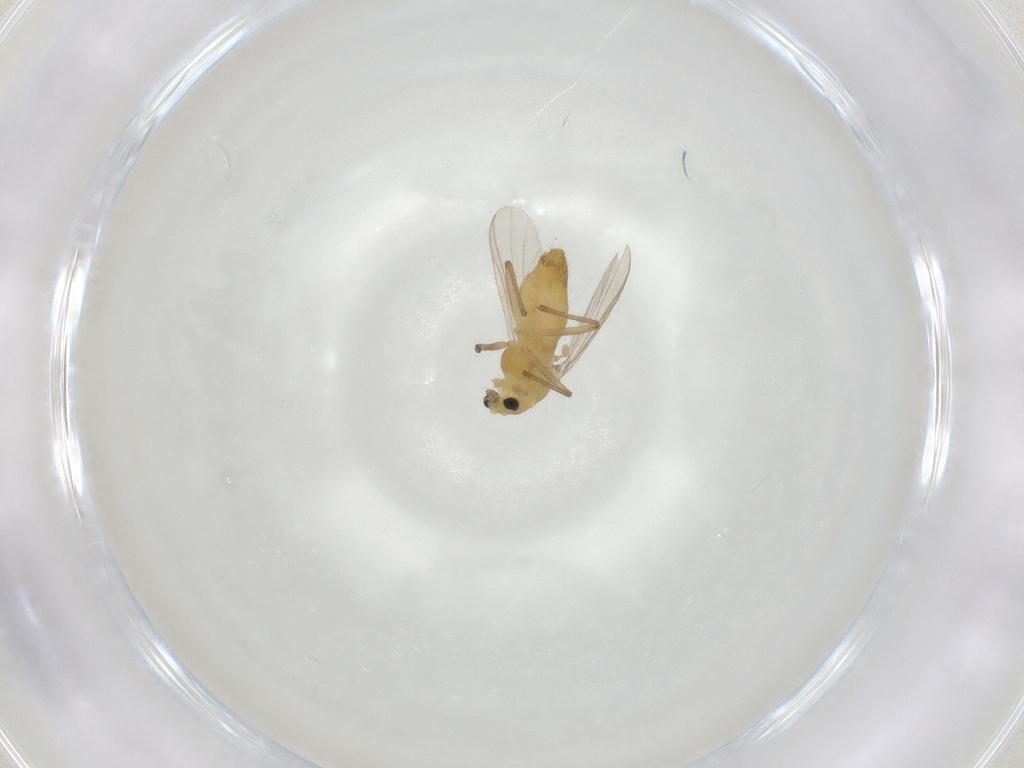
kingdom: Animalia
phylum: Arthropoda
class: Insecta
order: Diptera
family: Chironomidae
